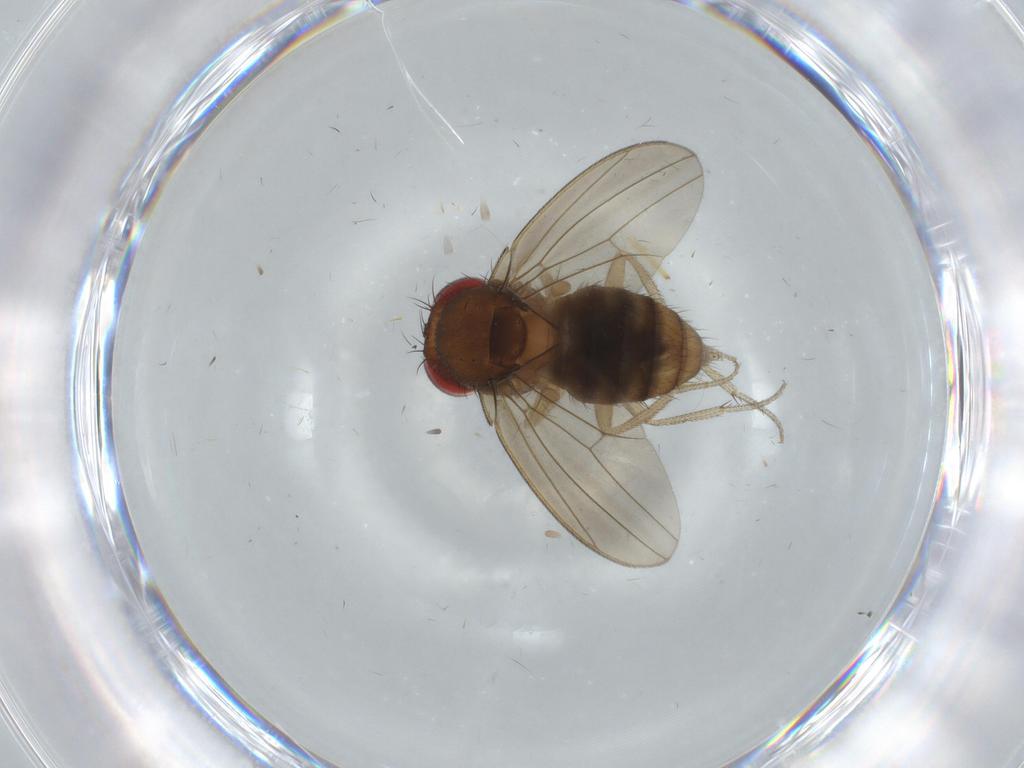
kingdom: Animalia
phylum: Arthropoda
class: Insecta
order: Diptera
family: Drosophilidae
